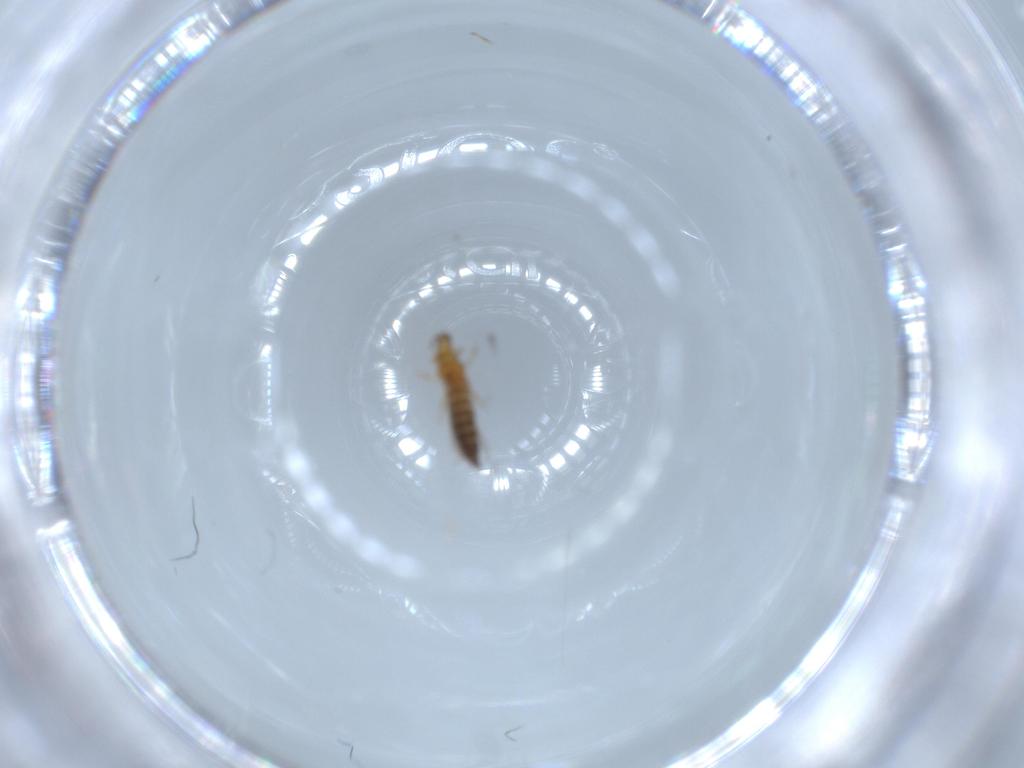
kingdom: Animalia
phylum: Arthropoda
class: Insecta
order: Thysanoptera
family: Thripidae
